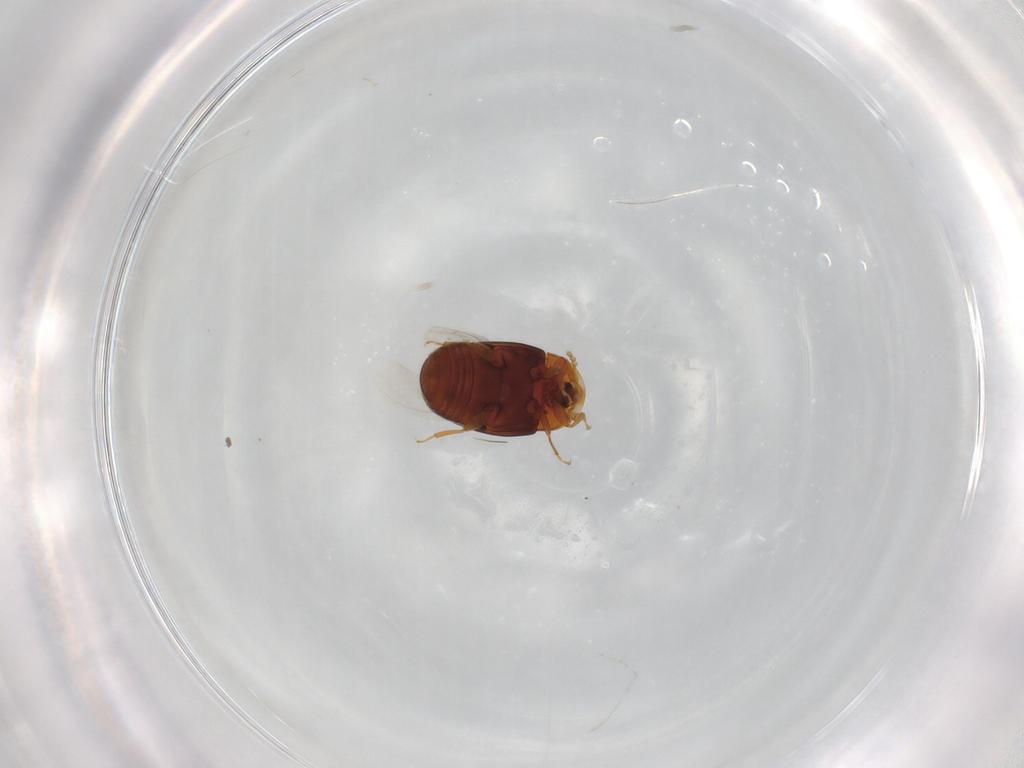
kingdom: Animalia
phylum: Arthropoda
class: Insecta
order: Coleoptera
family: Corylophidae
